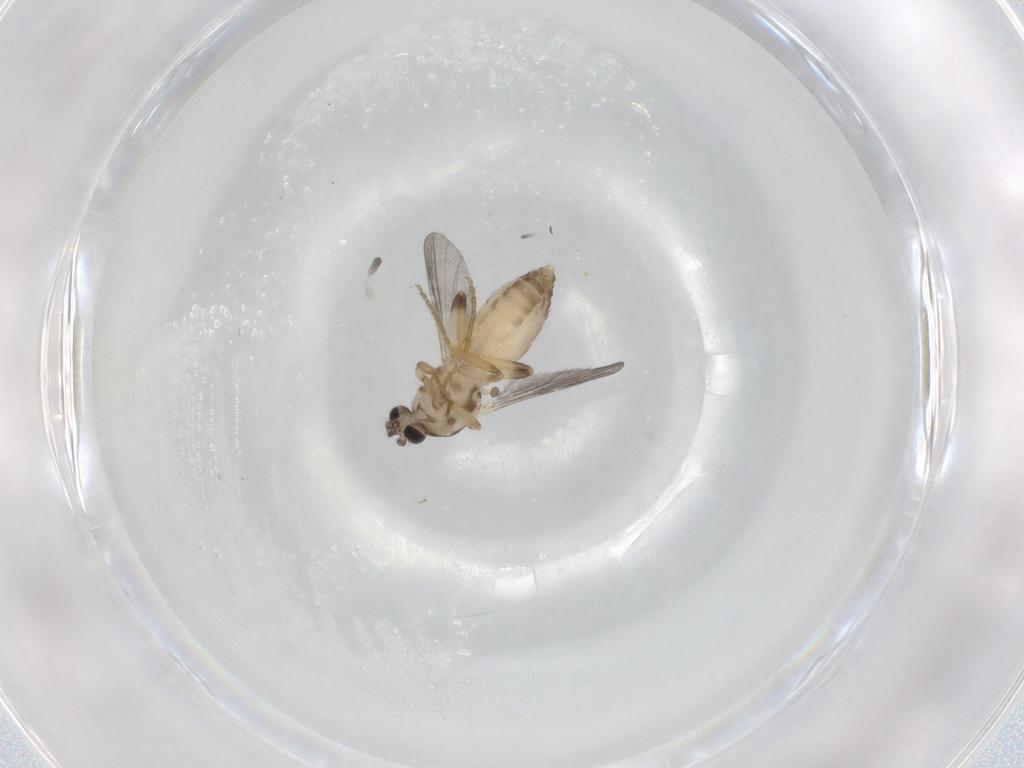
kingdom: Animalia
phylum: Arthropoda
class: Insecta
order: Diptera
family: Ceratopogonidae
